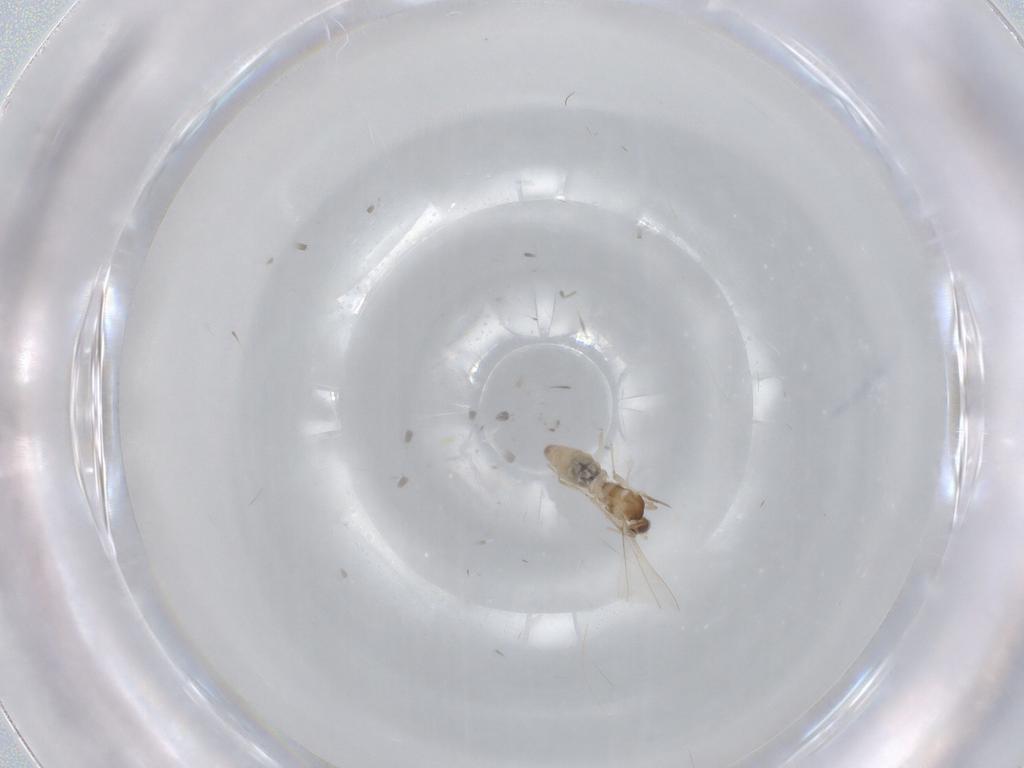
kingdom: Animalia
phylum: Arthropoda
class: Insecta
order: Diptera
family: Cecidomyiidae
